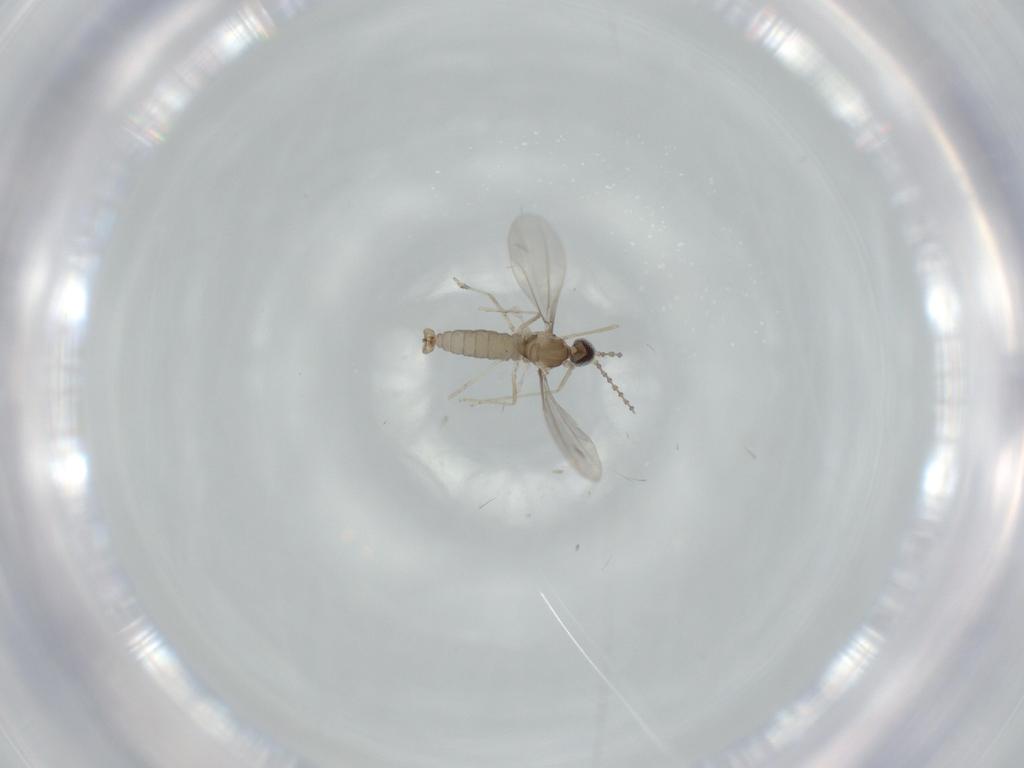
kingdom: Animalia
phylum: Arthropoda
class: Insecta
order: Diptera
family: Cecidomyiidae
